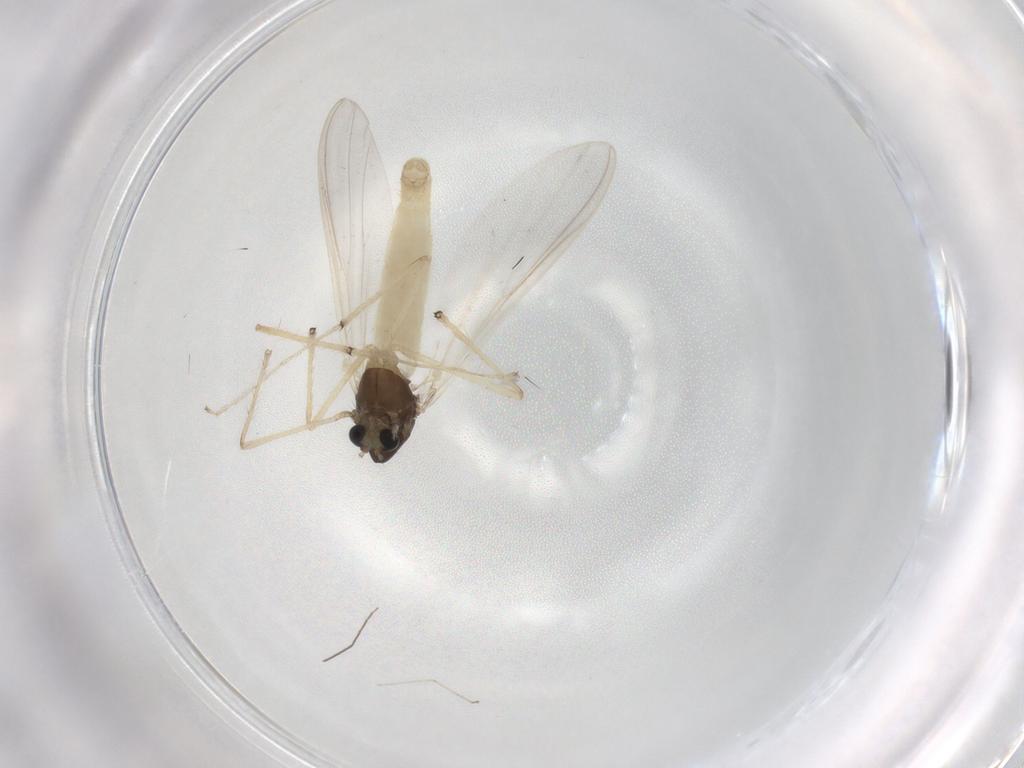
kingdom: Animalia
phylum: Arthropoda
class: Insecta
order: Diptera
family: Chironomidae
